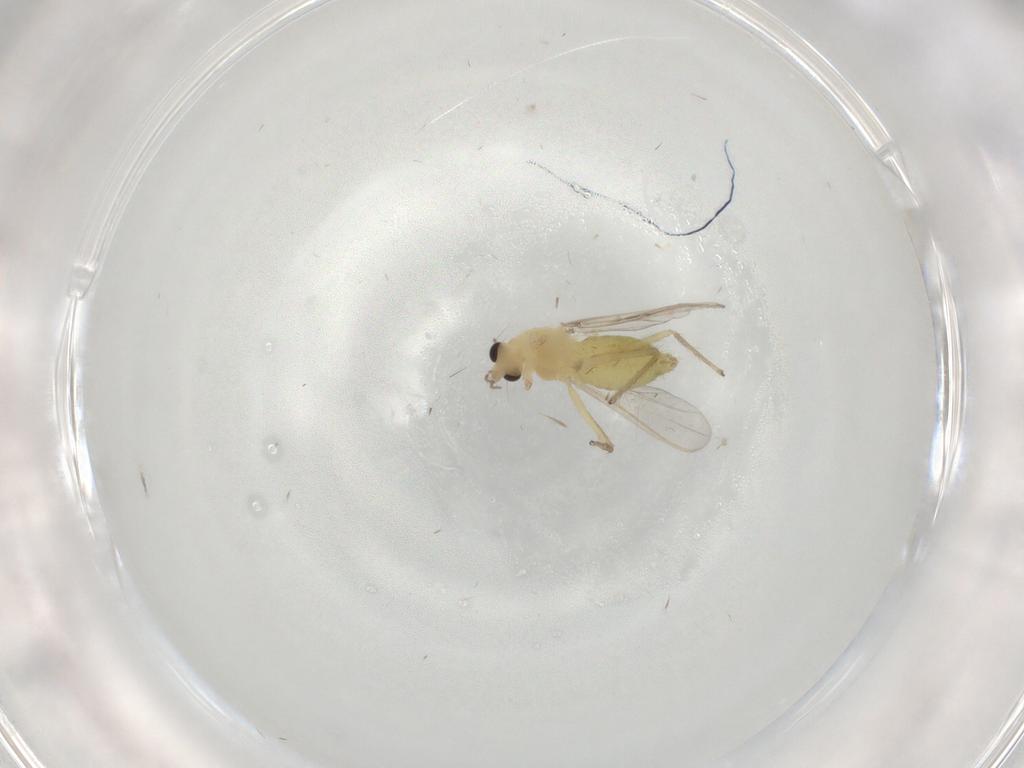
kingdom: Animalia
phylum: Arthropoda
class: Insecta
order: Diptera
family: Chironomidae
